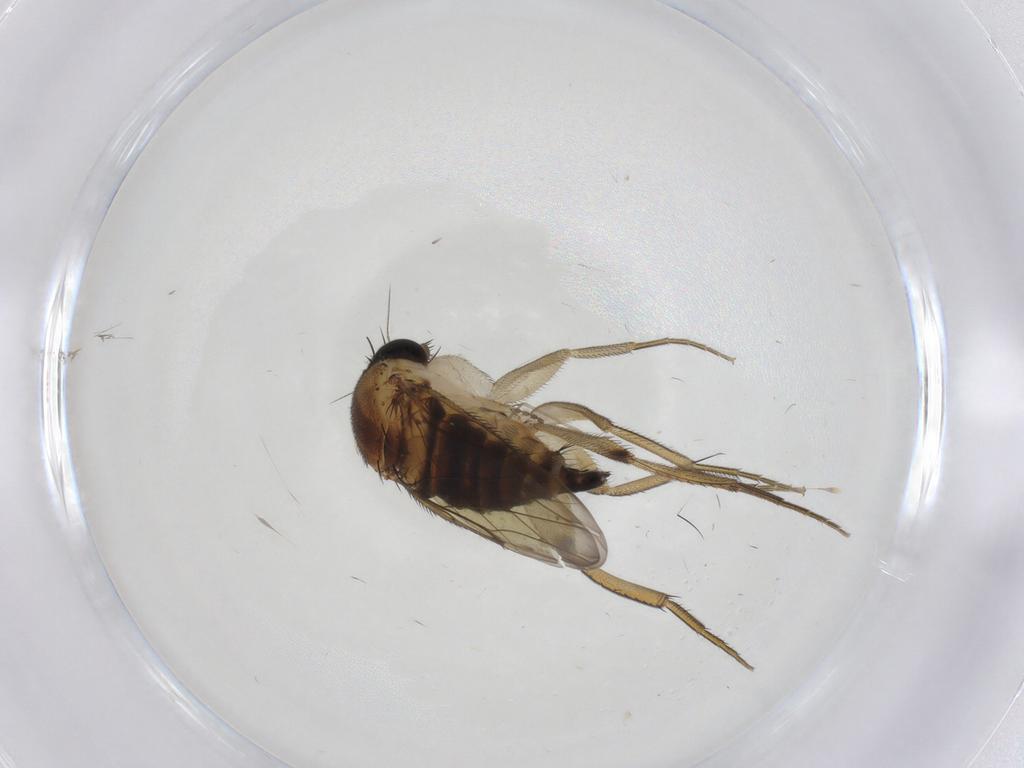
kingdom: Animalia
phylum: Arthropoda
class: Insecta
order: Diptera
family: Phoridae
